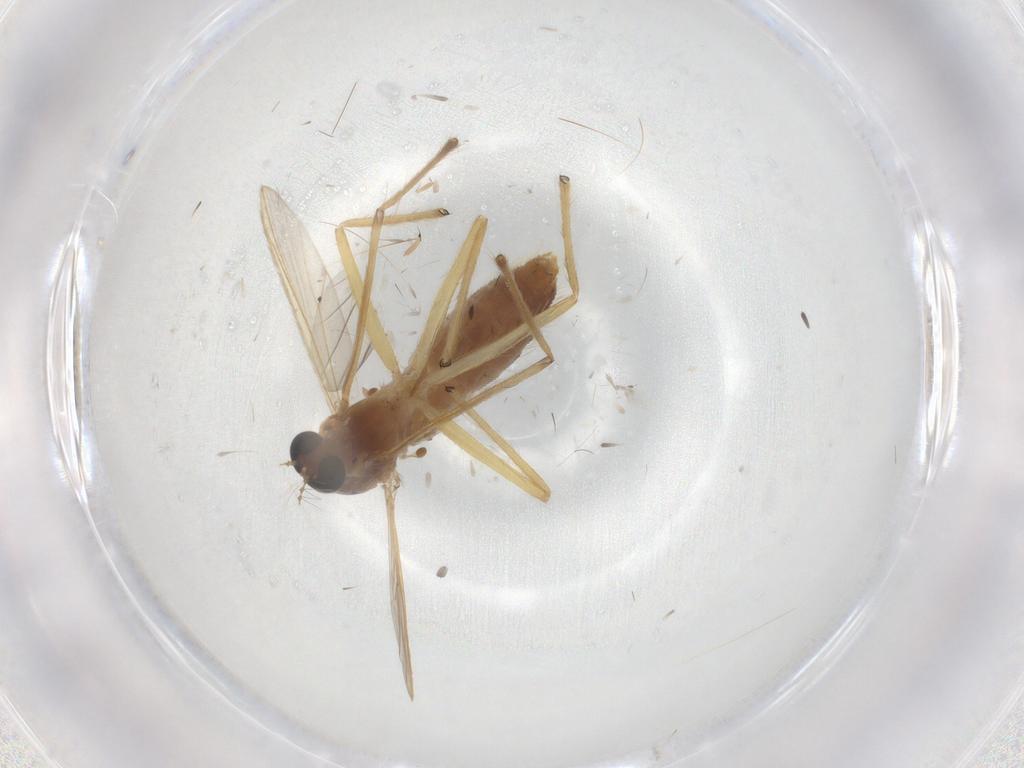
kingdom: Animalia
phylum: Arthropoda
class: Insecta
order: Diptera
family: Chironomidae
